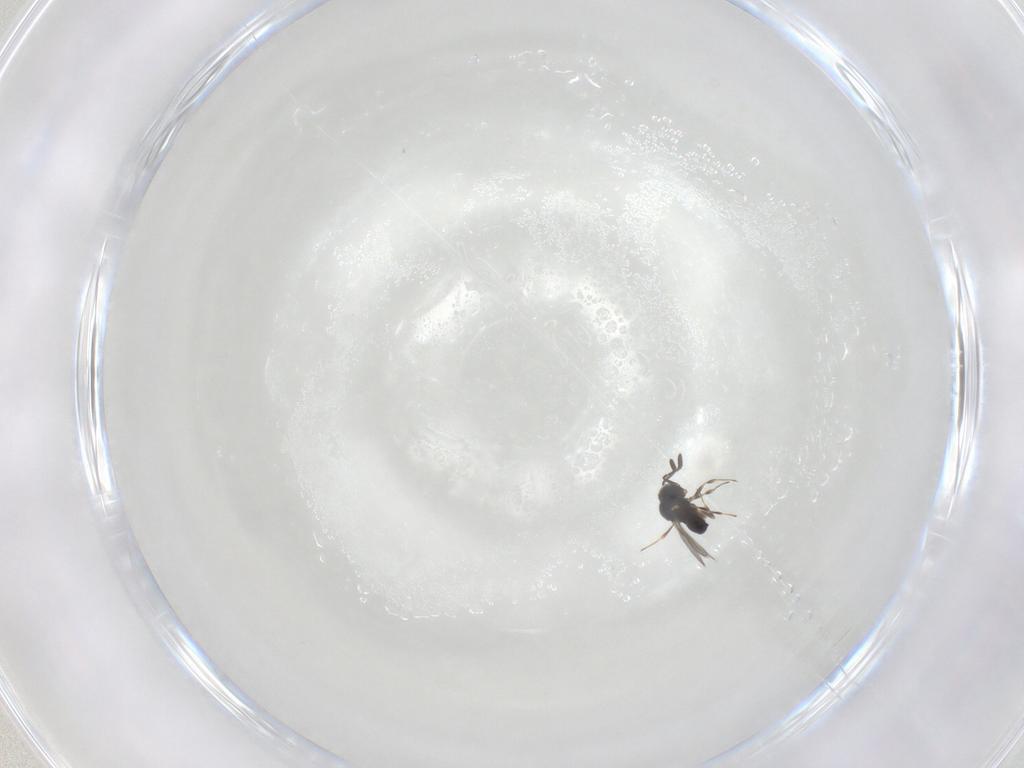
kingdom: Animalia
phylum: Arthropoda
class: Insecta
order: Hymenoptera
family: Scelionidae
